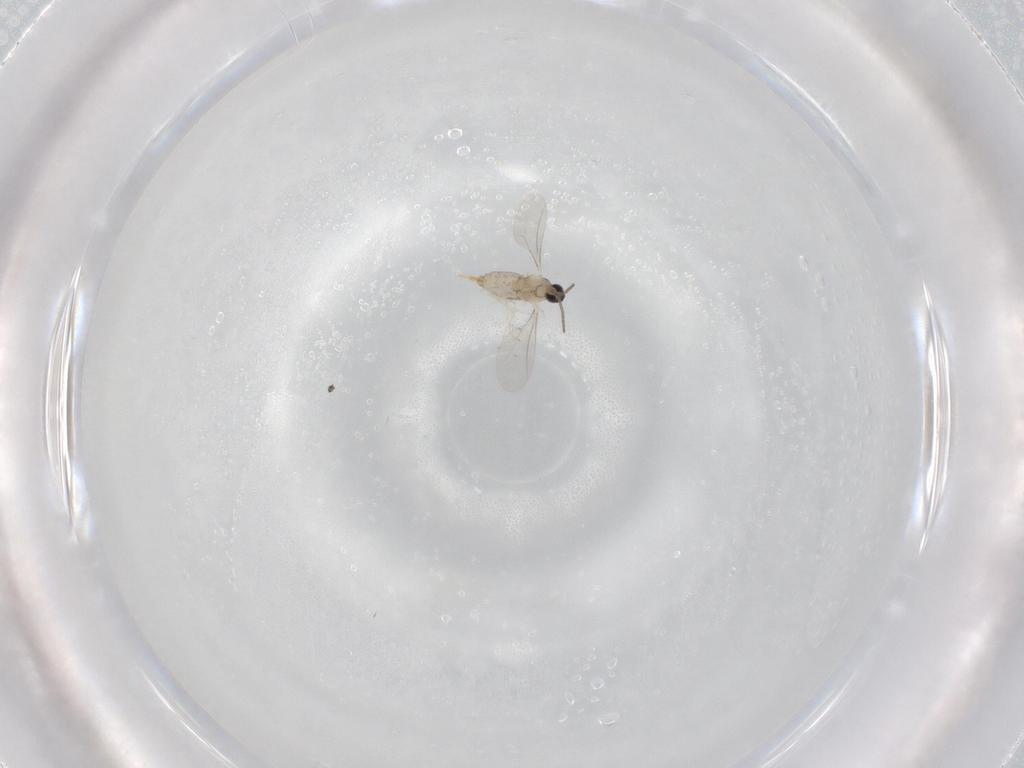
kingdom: Animalia
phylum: Arthropoda
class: Insecta
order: Diptera
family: Cecidomyiidae
